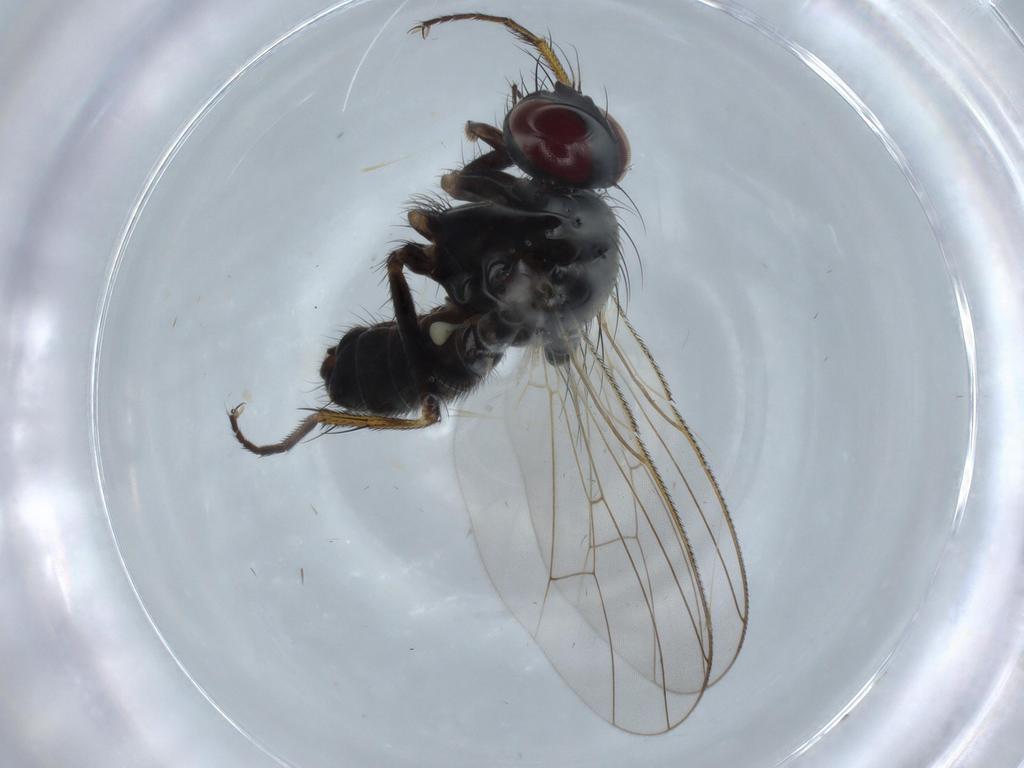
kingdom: Animalia
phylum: Arthropoda
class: Insecta
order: Diptera
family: Muscidae
